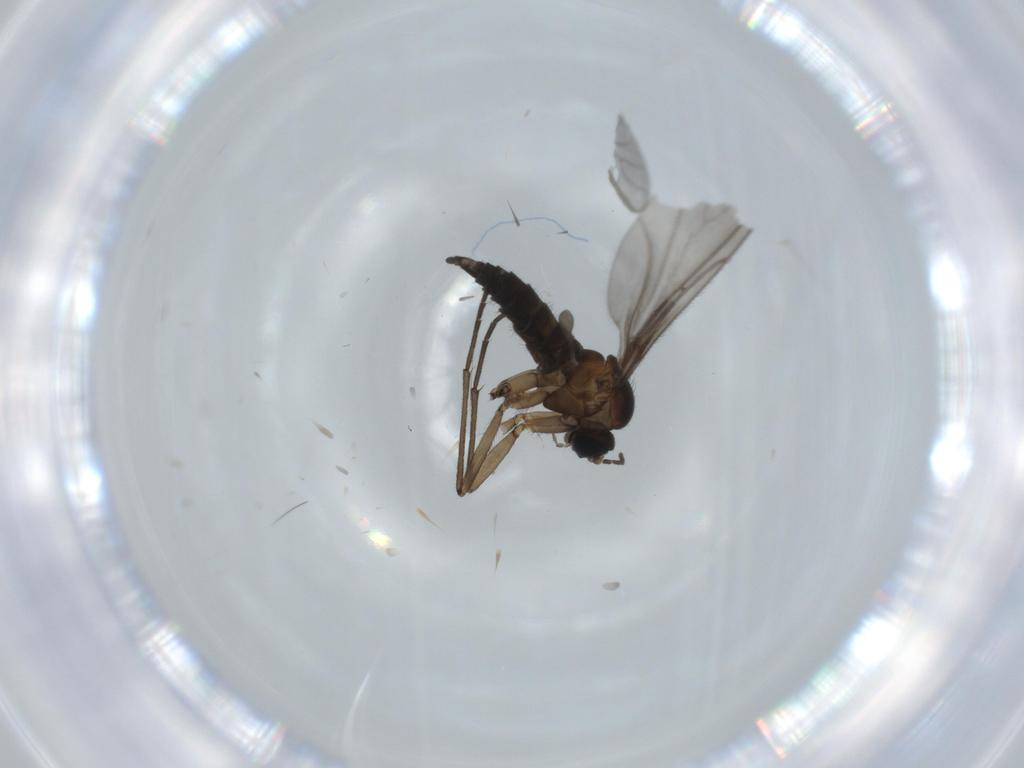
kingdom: Animalia
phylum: Arthropoda
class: Insecta
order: Diptera
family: Sciaridae
